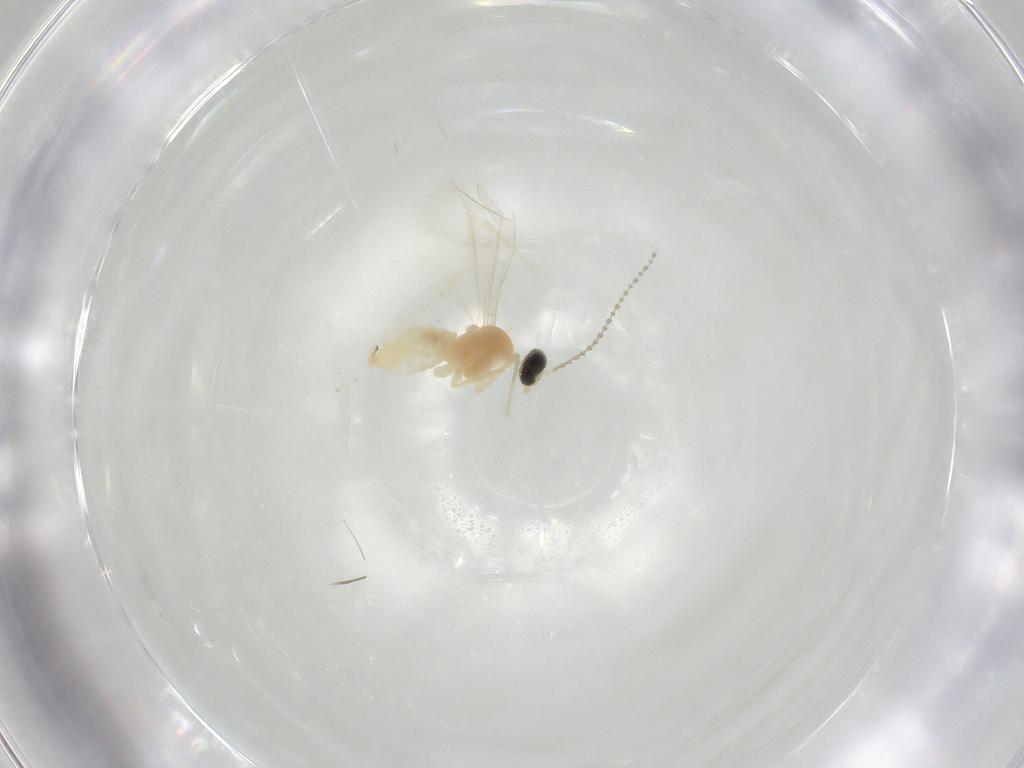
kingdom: Animalia
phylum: Arthropoda
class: Insecta
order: Diptera
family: Cecidomyiidae
